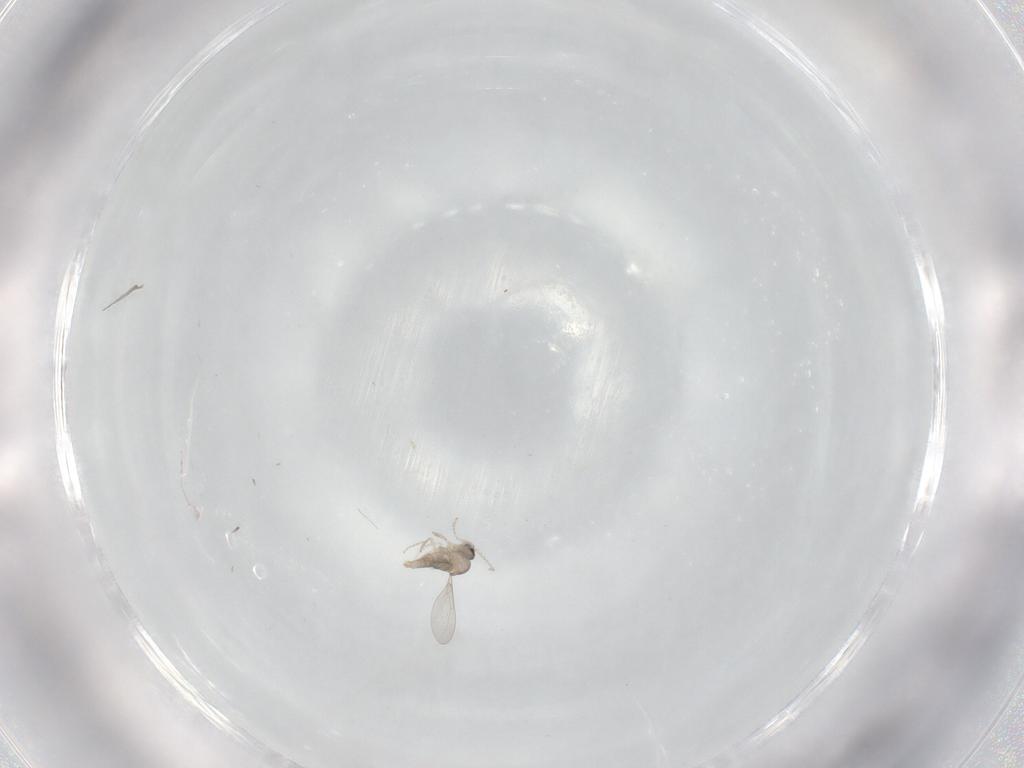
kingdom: Animalia
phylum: Arthropoda
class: Insecta
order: Diptera
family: Cecidomyiidae
